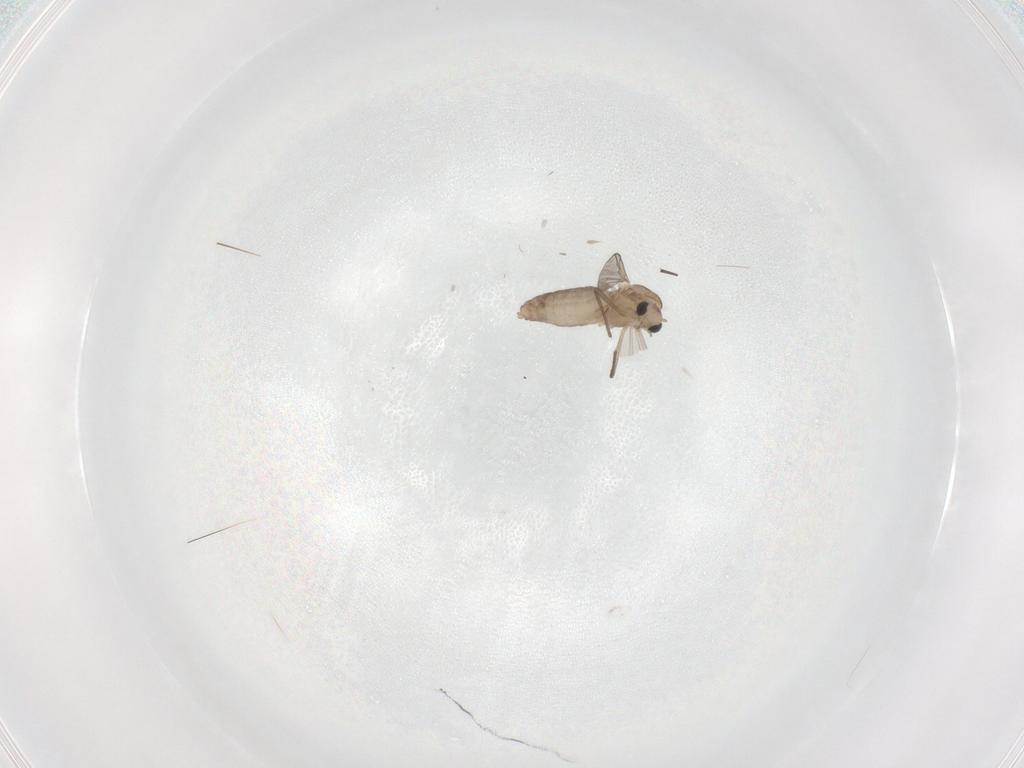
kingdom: Animalia
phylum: Arthropoda
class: Insecta
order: Diptera
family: Chironomidae
